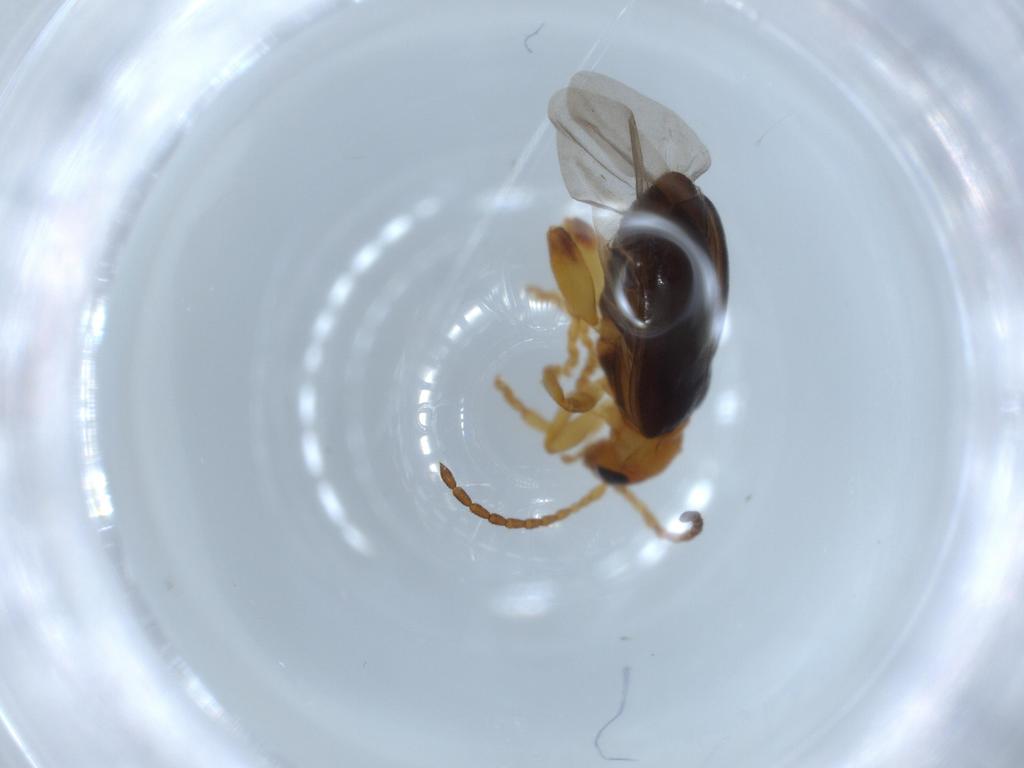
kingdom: Animalia
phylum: Arthropoda
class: Insecta
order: Coleoptera
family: Chrysomelidae
